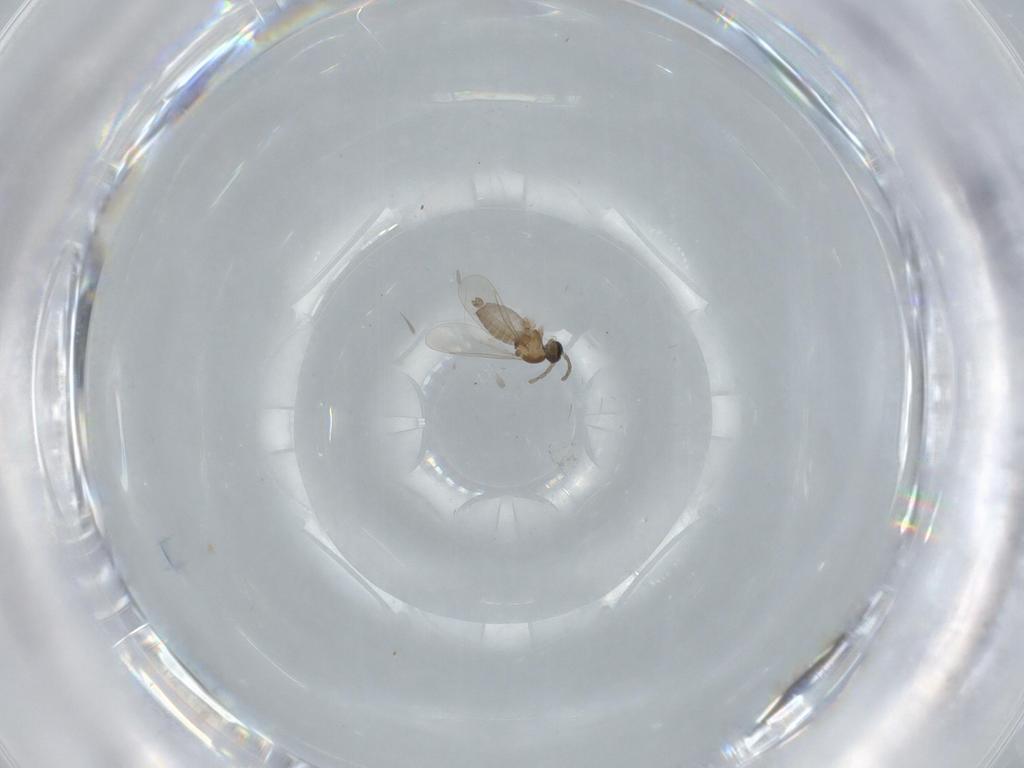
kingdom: Animalia
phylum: Arthropoda
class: Insecta
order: Diptera
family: Cecidomyiidae
